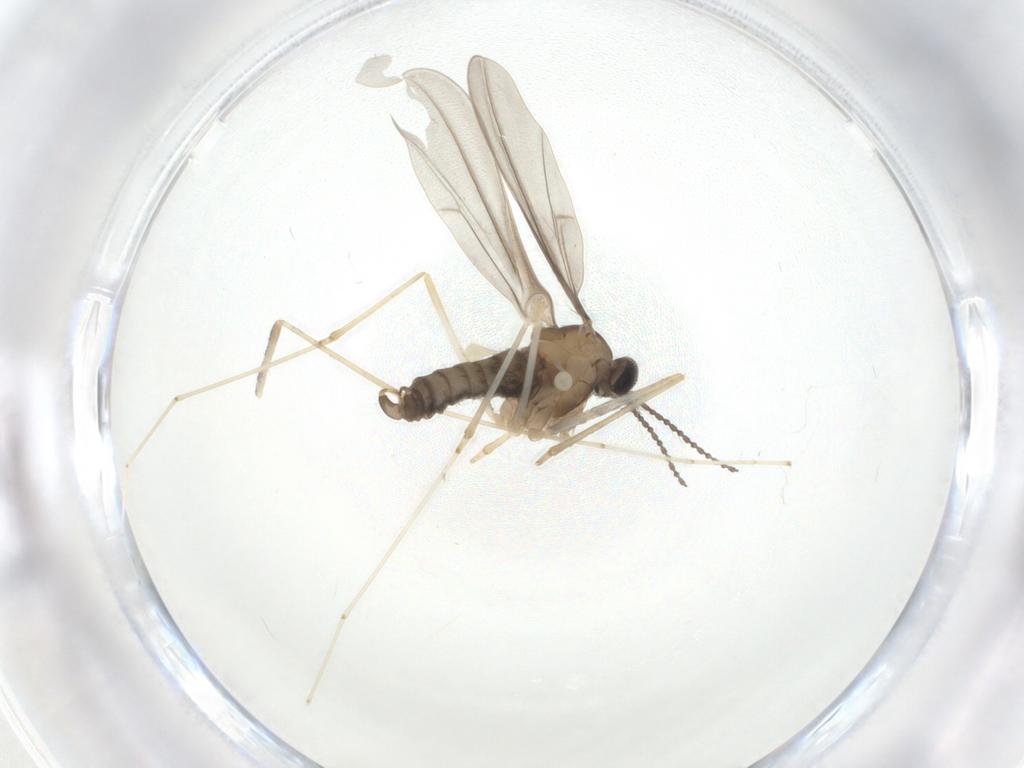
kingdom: Animalia
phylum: Arthropoda
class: Insecta
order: Diptera
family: Cecidomyiidae
